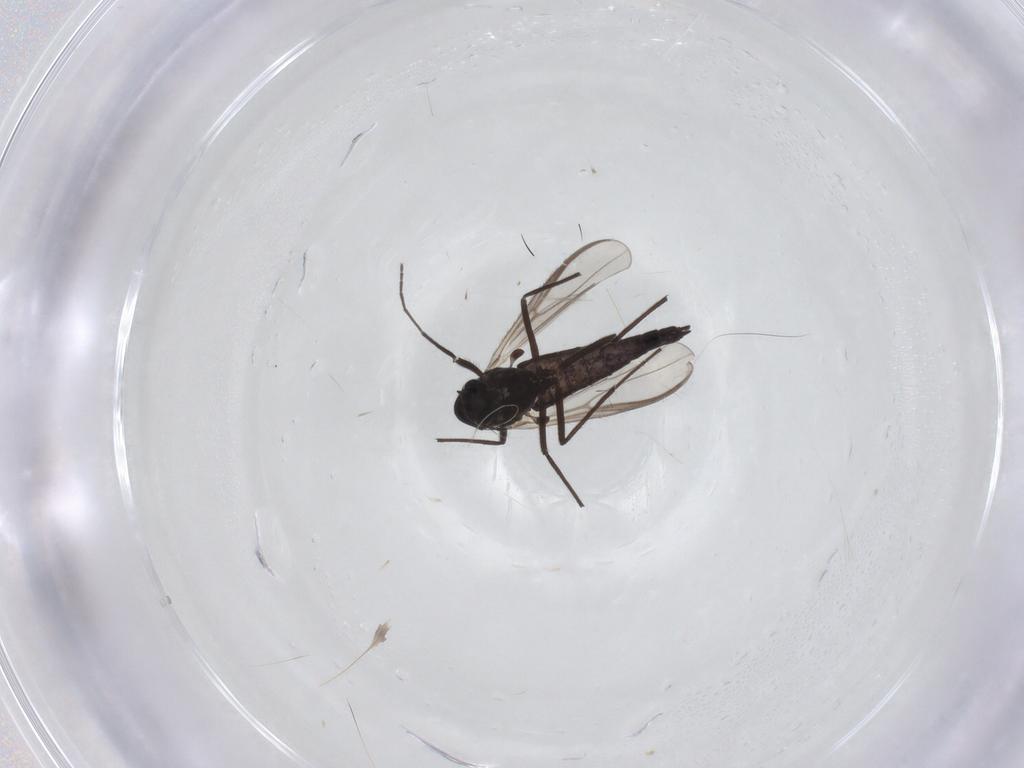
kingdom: Animalia
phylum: Arthropoda
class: Insecta
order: Diptera
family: Chironomidae
